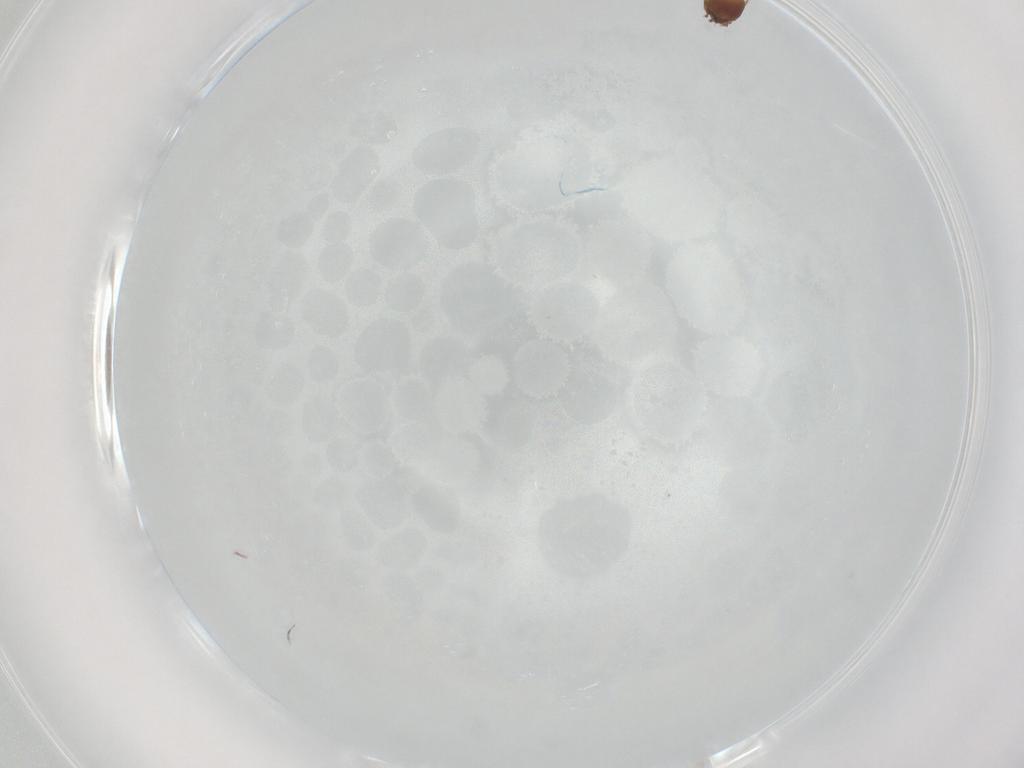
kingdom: Animalia
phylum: Arthropoda
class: Arachnida
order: Sarcoptiformes
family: Phenopelopidae
